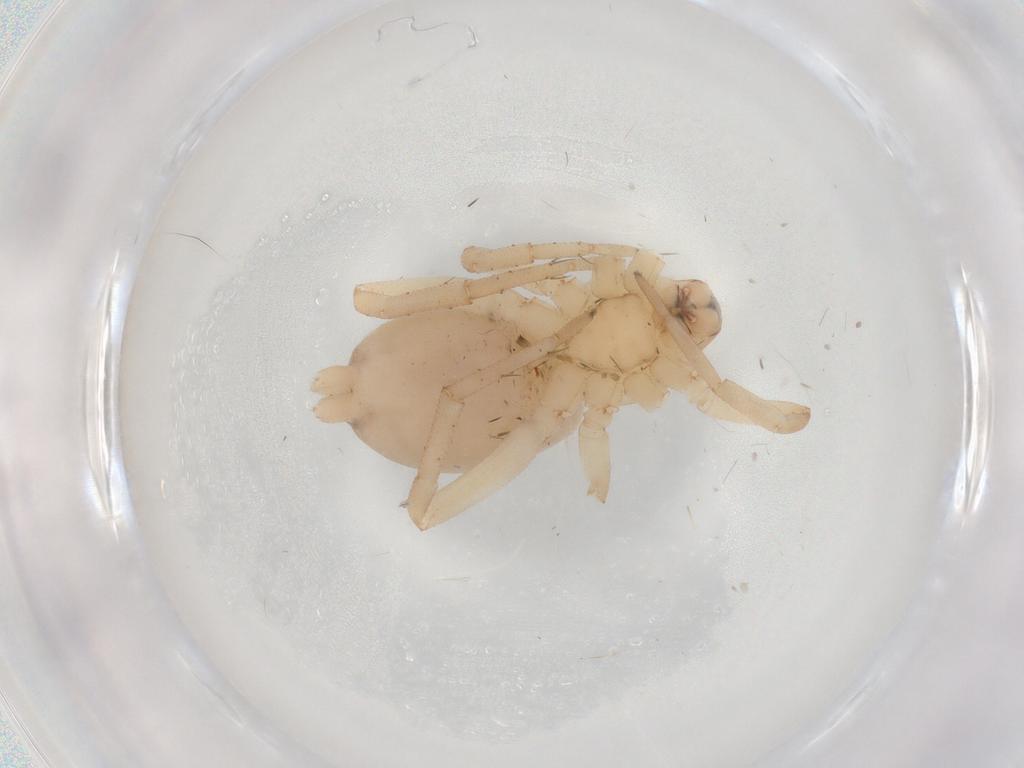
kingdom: Animalia
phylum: Arthropoda
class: Arachnida
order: Araneae
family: Gnaphosidae
